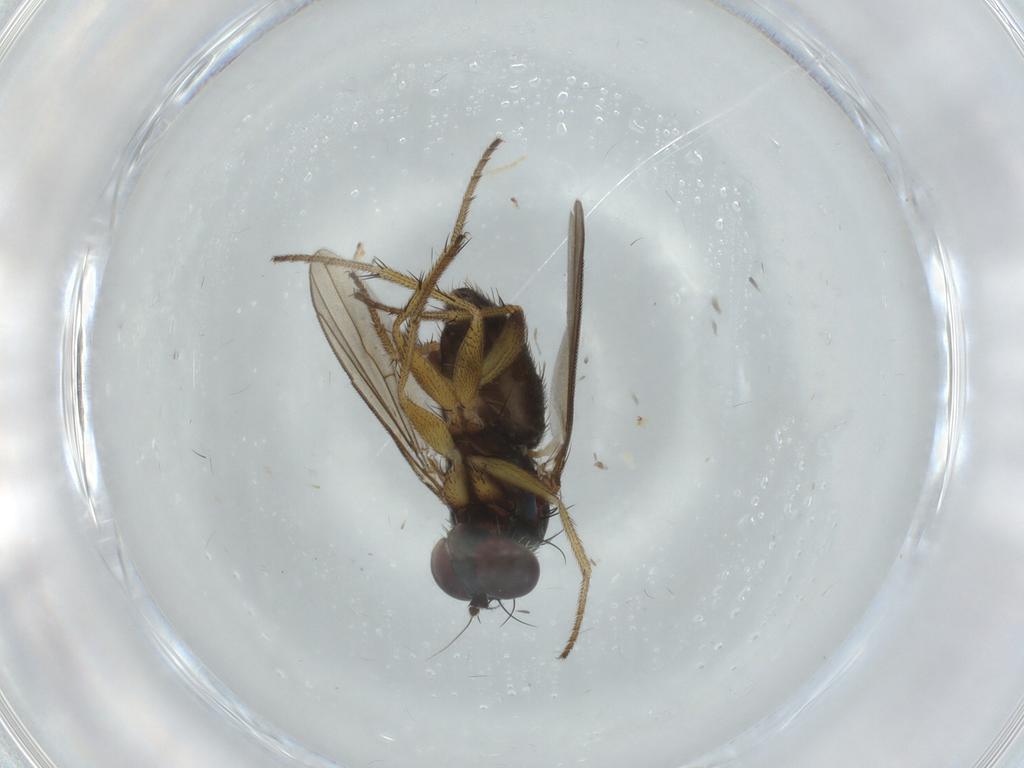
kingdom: Animalia
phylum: Arthropoda
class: Insecta
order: Diptera
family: Dolichopodidae
